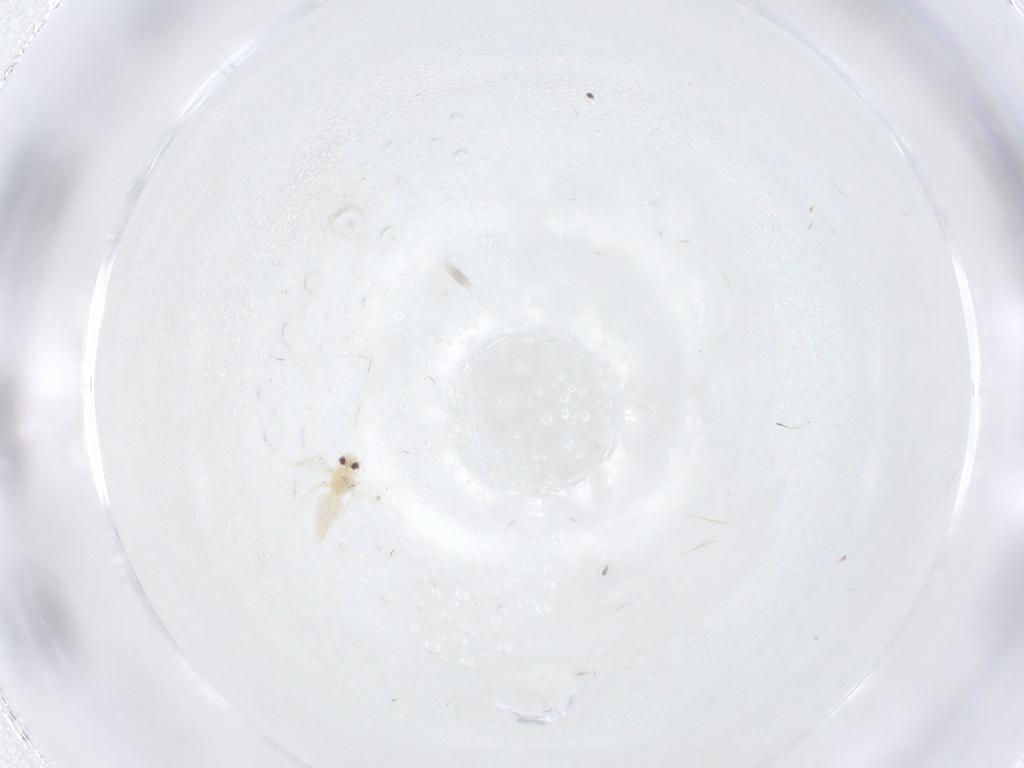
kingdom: Animalia
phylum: Arthropoda
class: Insecta
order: Hemiptera
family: Aleyrodidae
